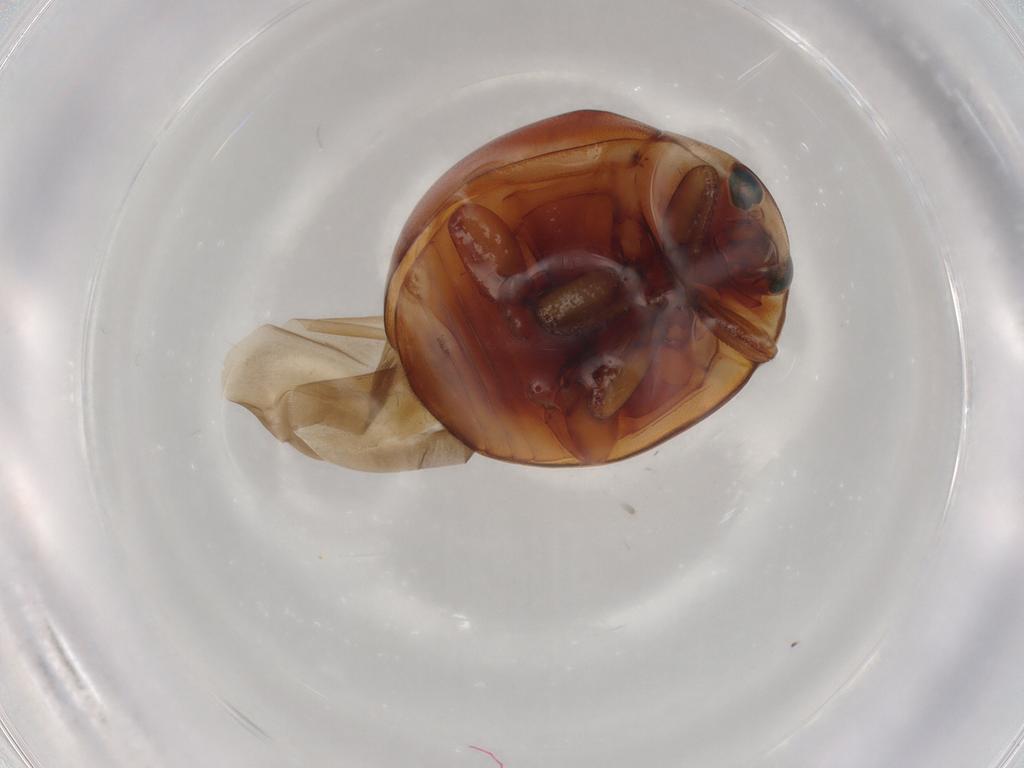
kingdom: Animalia
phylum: Arthropoda
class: Insecta
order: Coleoptera
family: Coccinellidae
